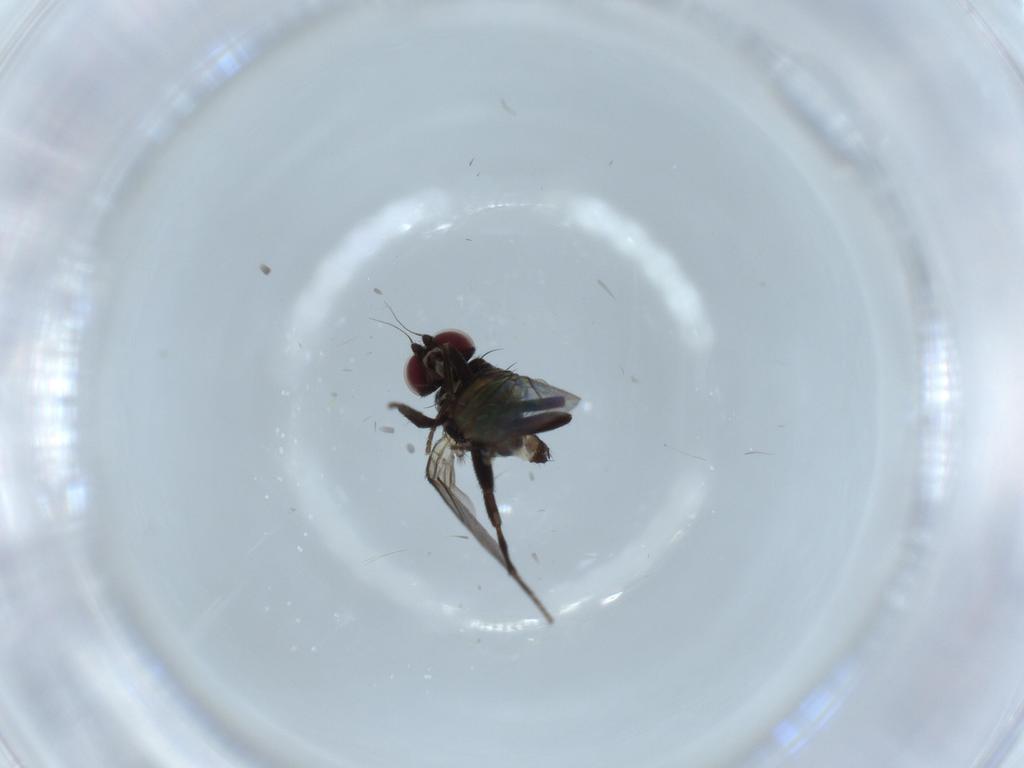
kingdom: Animalia
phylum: Arthropoda
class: Insecta
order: Diptera
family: Agromyzidae
